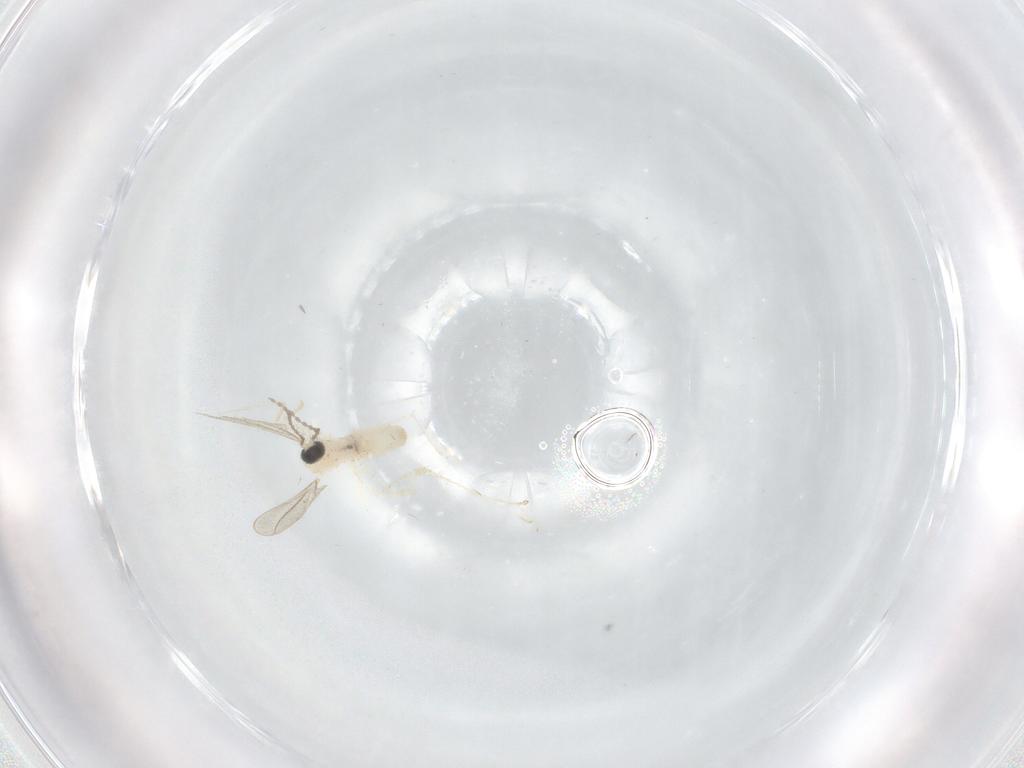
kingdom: Animalia
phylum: Arthropoda
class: Insecta
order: Diptera
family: Cecidomyiidae
